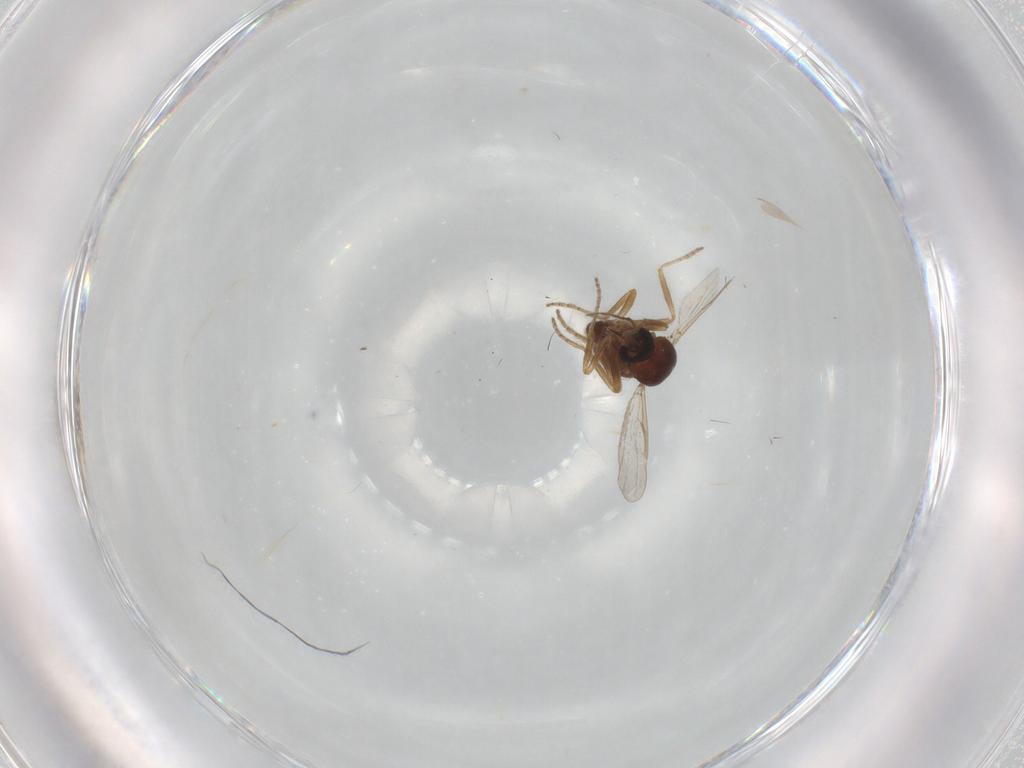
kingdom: Animalia
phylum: Arthropoda
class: Insecta
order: Diptera
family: Ceratopogonidae
